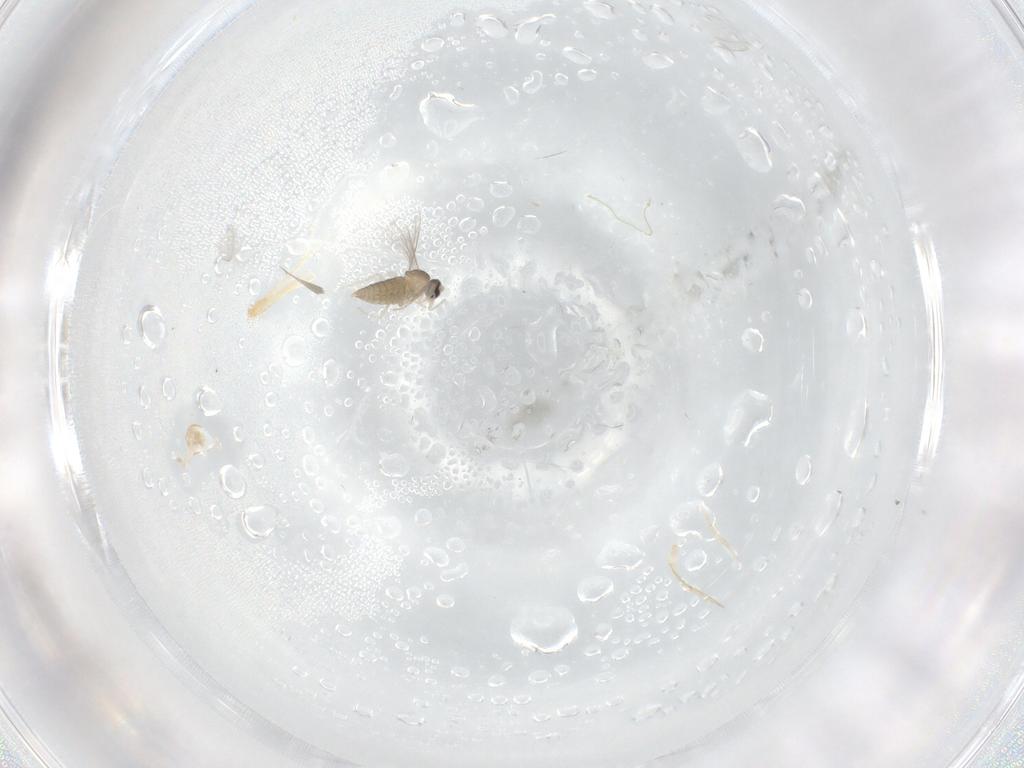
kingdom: Animalia
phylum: Arthropoda
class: Insecta
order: Diptera
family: Cecidomyiidae
